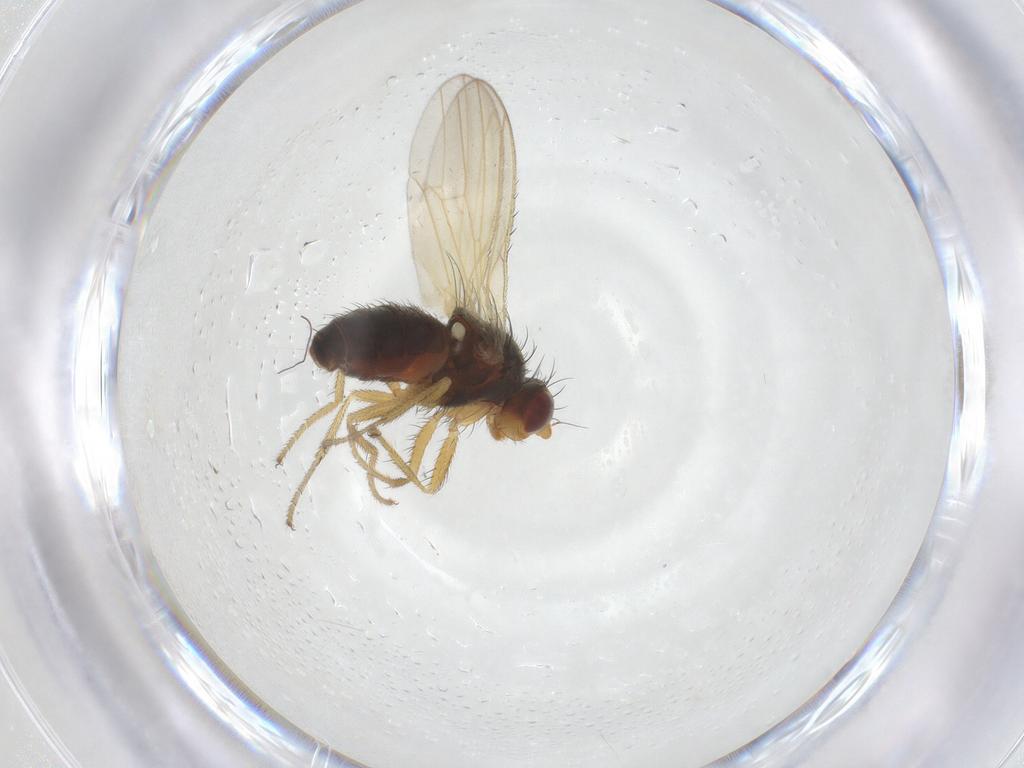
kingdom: Animalia
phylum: Arthropoda
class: Insecta
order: Diptera
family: Heleomyzidae
